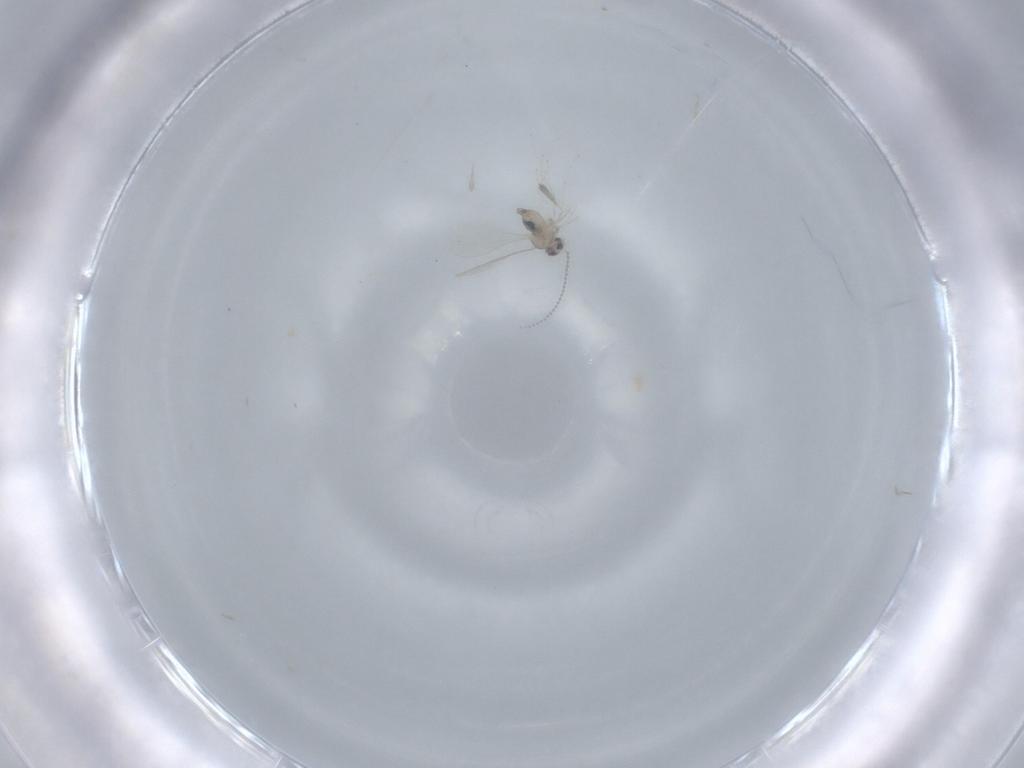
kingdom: Animalia
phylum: Arthropoda
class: Insecta
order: Diptera
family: Cecidomyiidae
